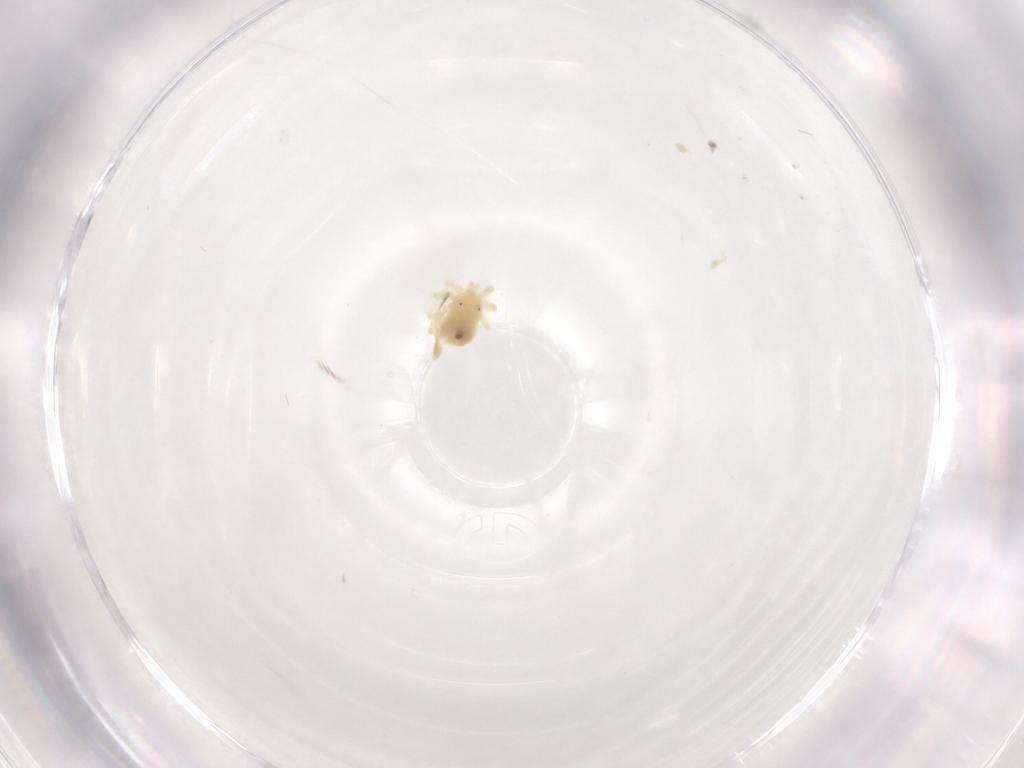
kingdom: Animalia
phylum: Arthropoda
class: Arachnida
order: Trombidiformes
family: Anystidae
